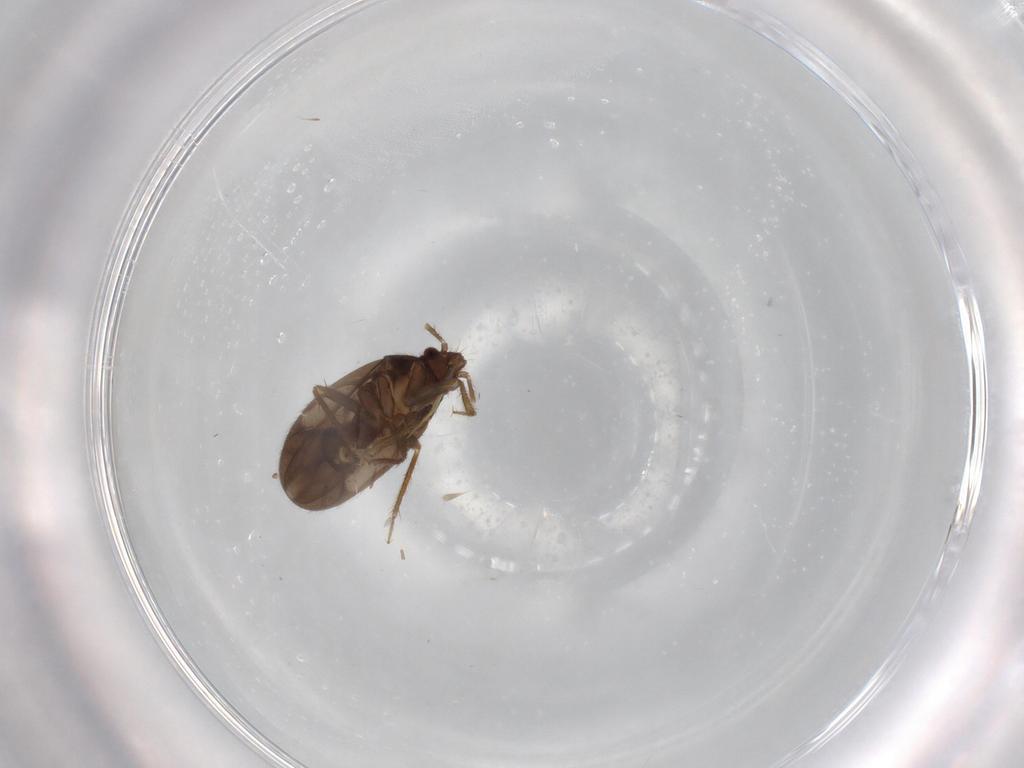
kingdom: Animalia
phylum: Arthropoda
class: Insecta
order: Hemiptera
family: Ceratocombidae
